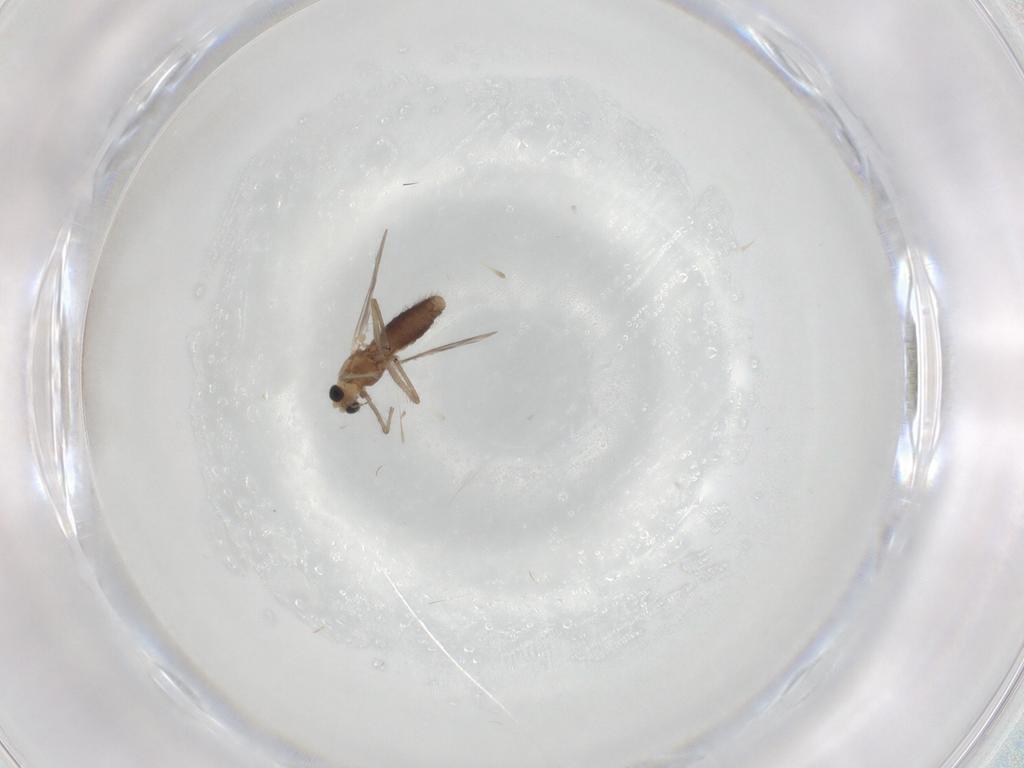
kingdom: Animalia
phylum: Arthropoda
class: Insecta
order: Diptera
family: Chironomidae
